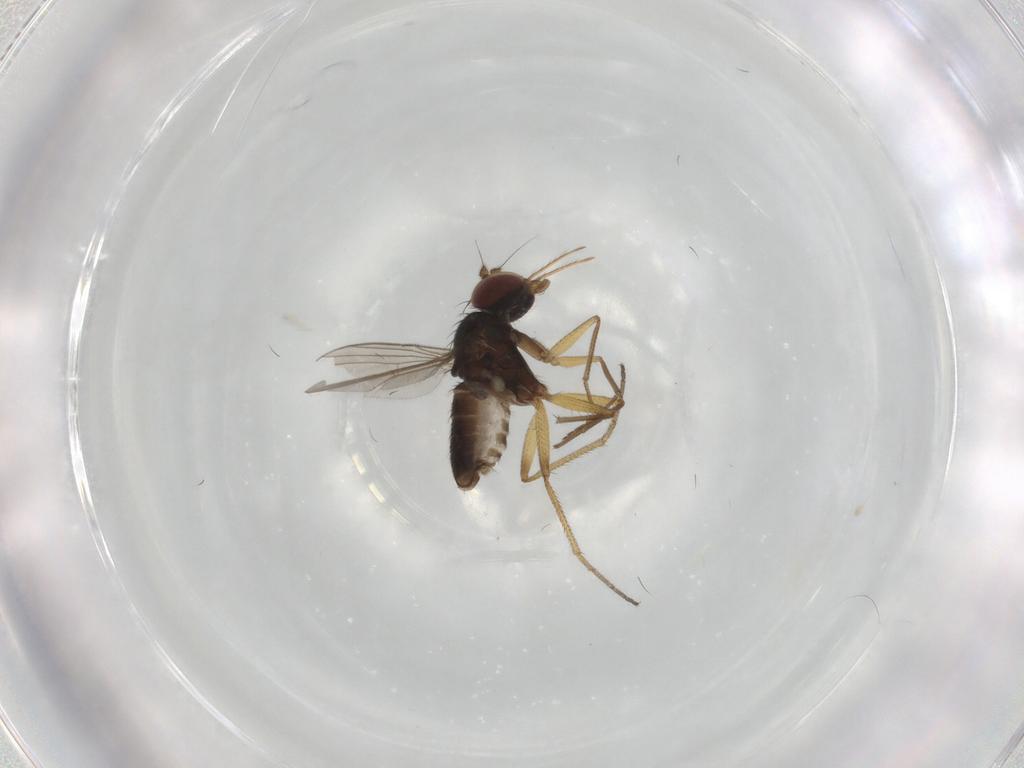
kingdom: Animalia
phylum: Arthropoda
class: Insecta
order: Diptera
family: Dolichopodidae
